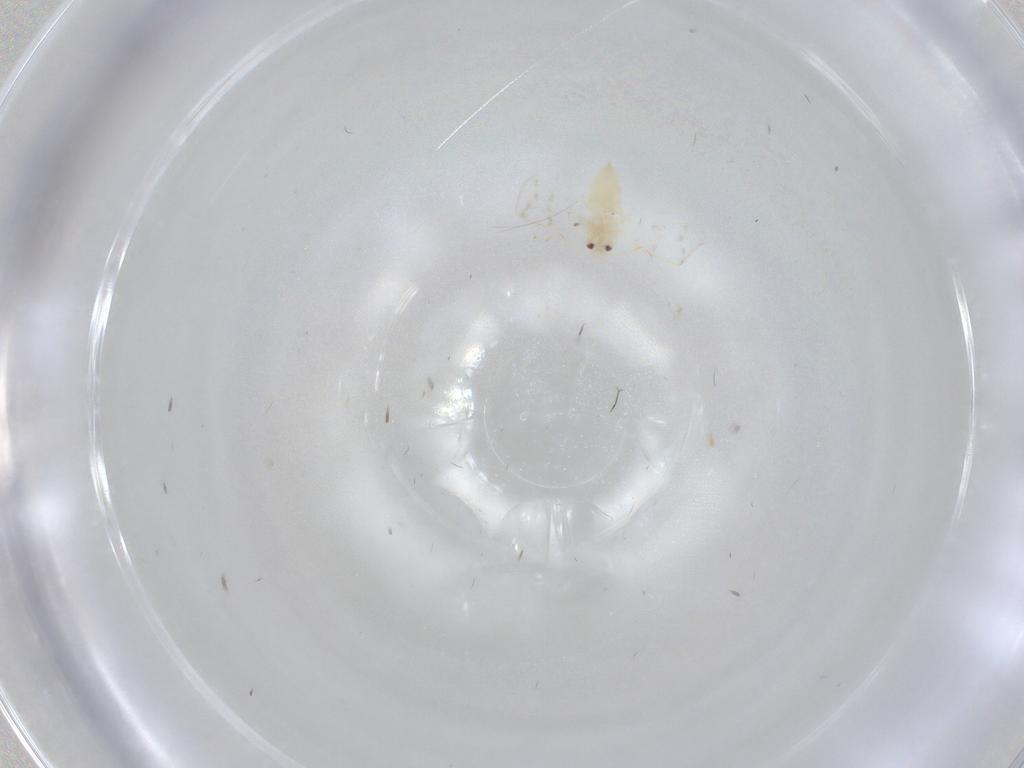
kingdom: Animalia
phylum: Arthropoda
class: Insecta
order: Hemiptera
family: Aleyrodidae
